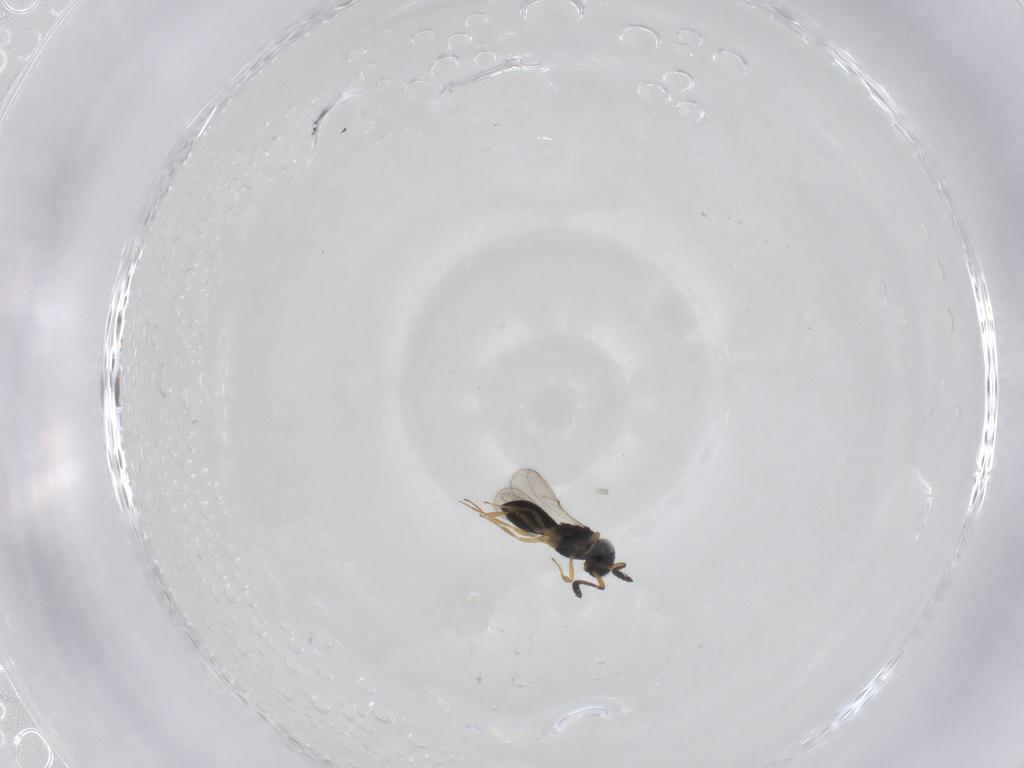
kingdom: Animalia
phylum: Arthropoda
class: Insecta
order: Hymenoptera
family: Scelionidae
